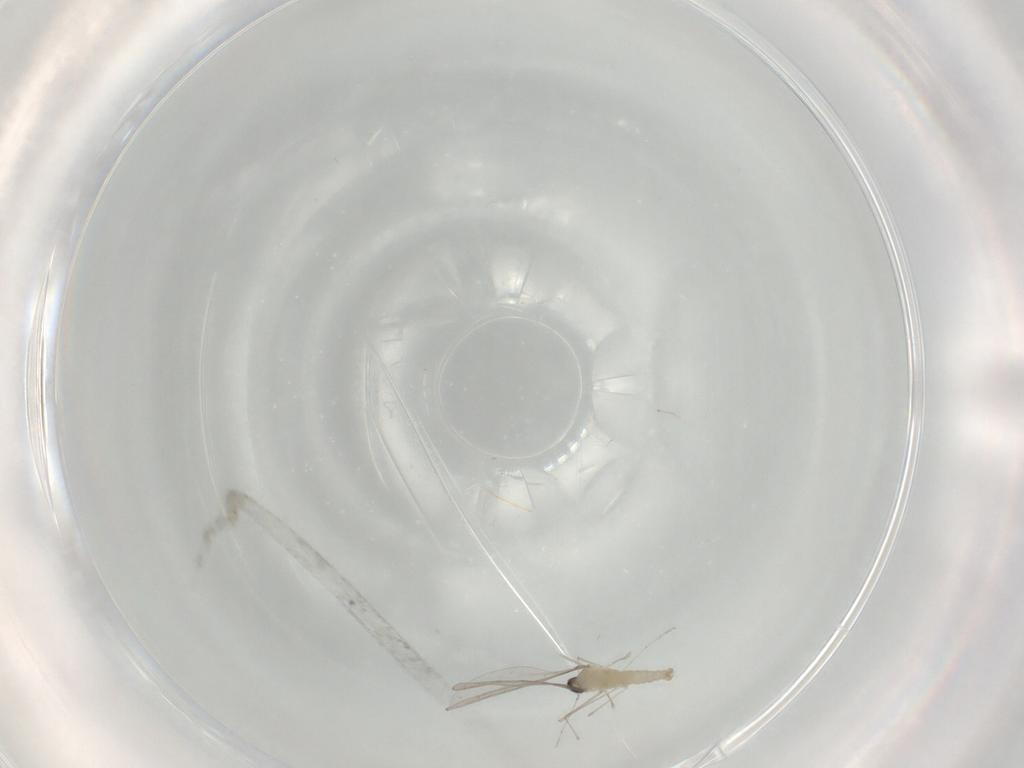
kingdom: Animalia
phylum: Arthropoda
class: Insecta
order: Diptera
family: Cecidomyiidae
